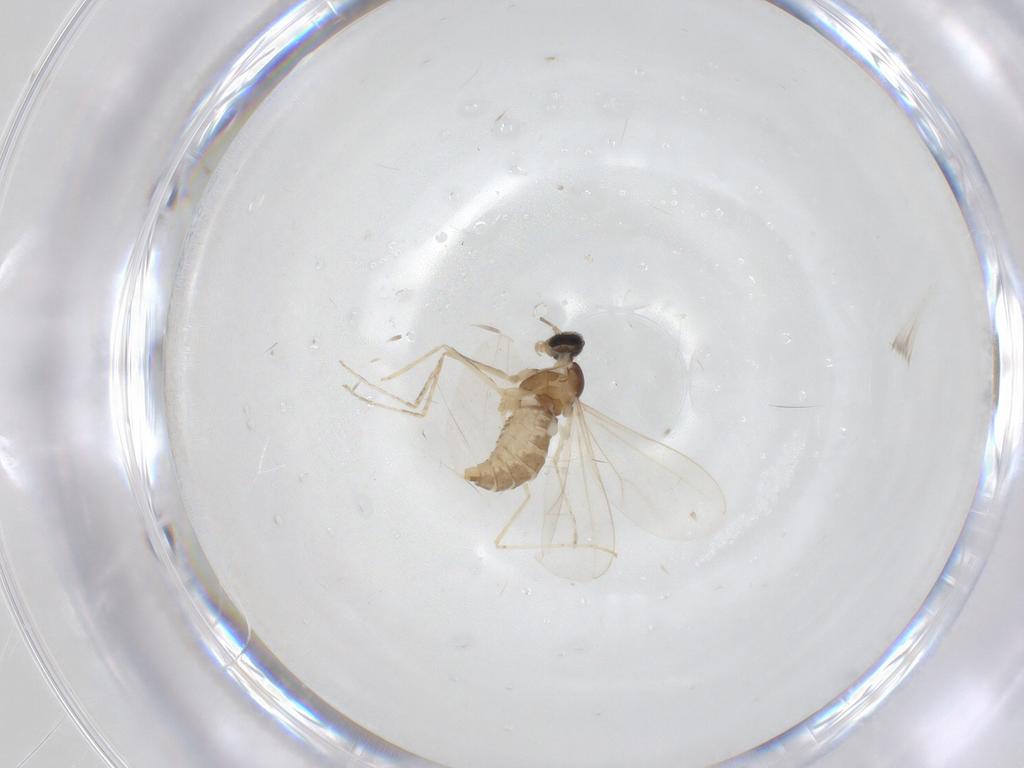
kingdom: Animalia
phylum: Arthropoda
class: Insecta
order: Diptera
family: Cecidomyiidae
